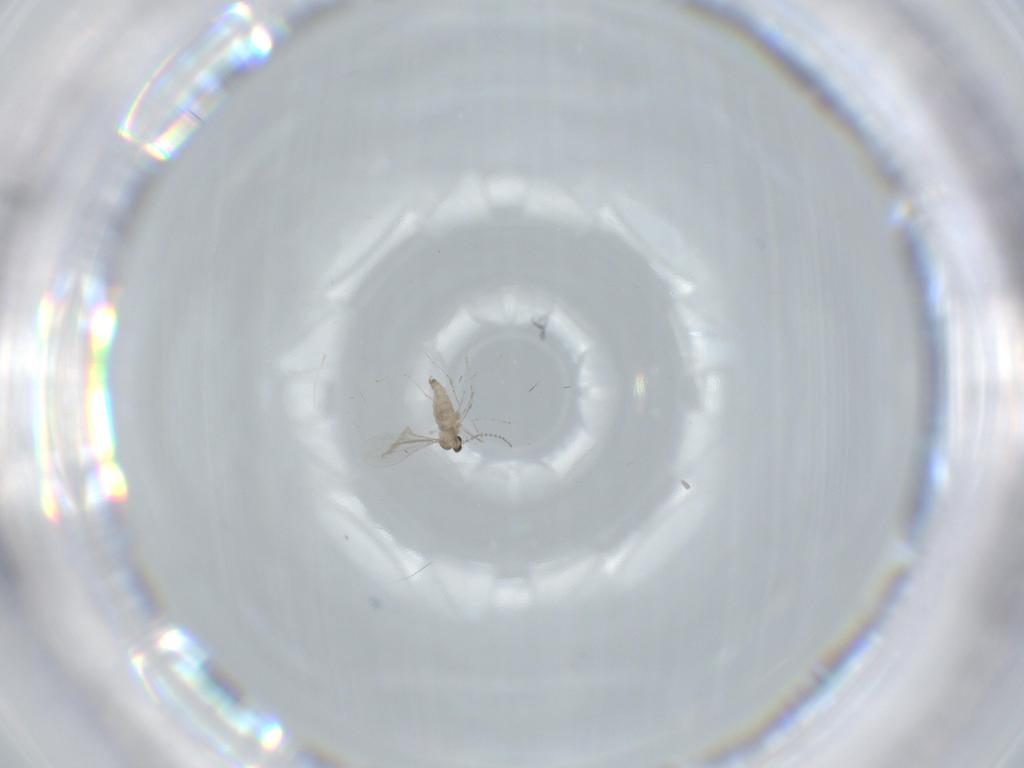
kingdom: Animalia
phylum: Arthropoda
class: Insecta
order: Diptera
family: Cecidomyiidae
